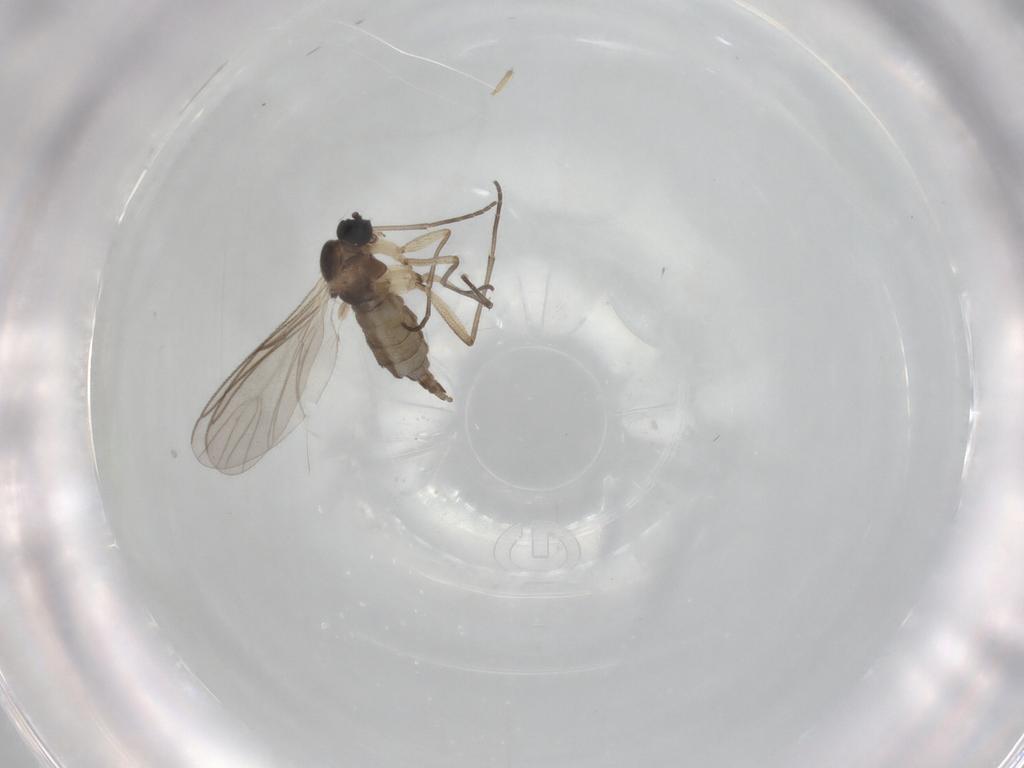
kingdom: Animalia
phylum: Arthropoda
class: Insecta
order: Diptera
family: Sciaridae
